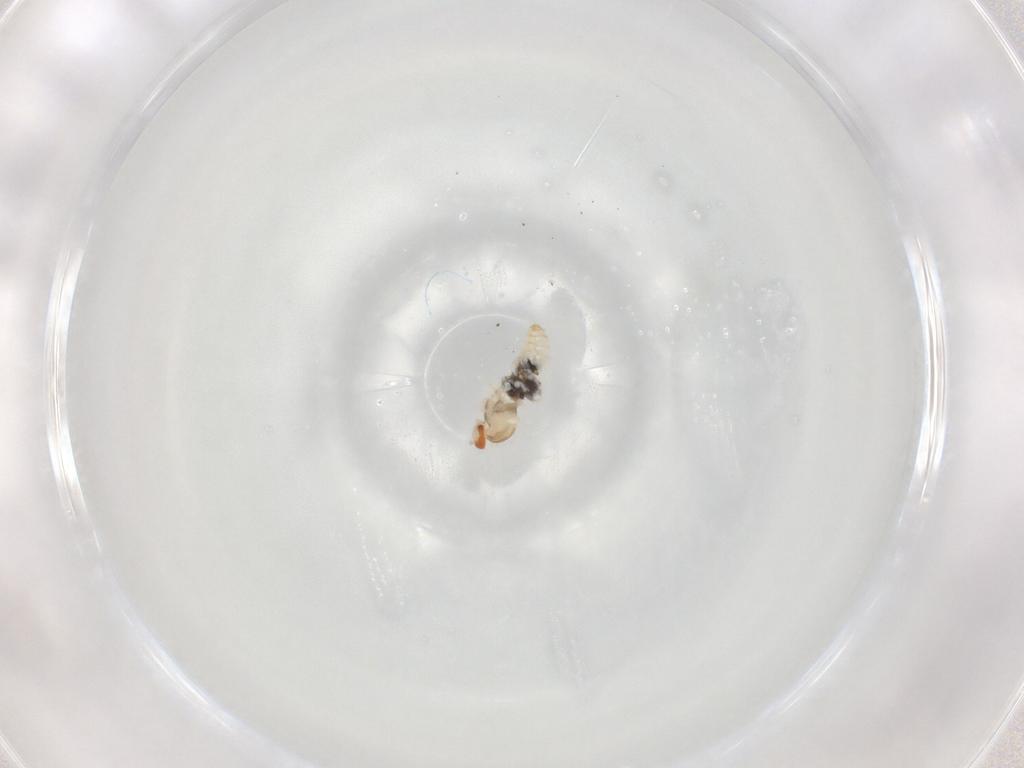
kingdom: Animalia
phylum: Arthropoda
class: Insecta
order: Diptera
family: Cecidomyiidae
